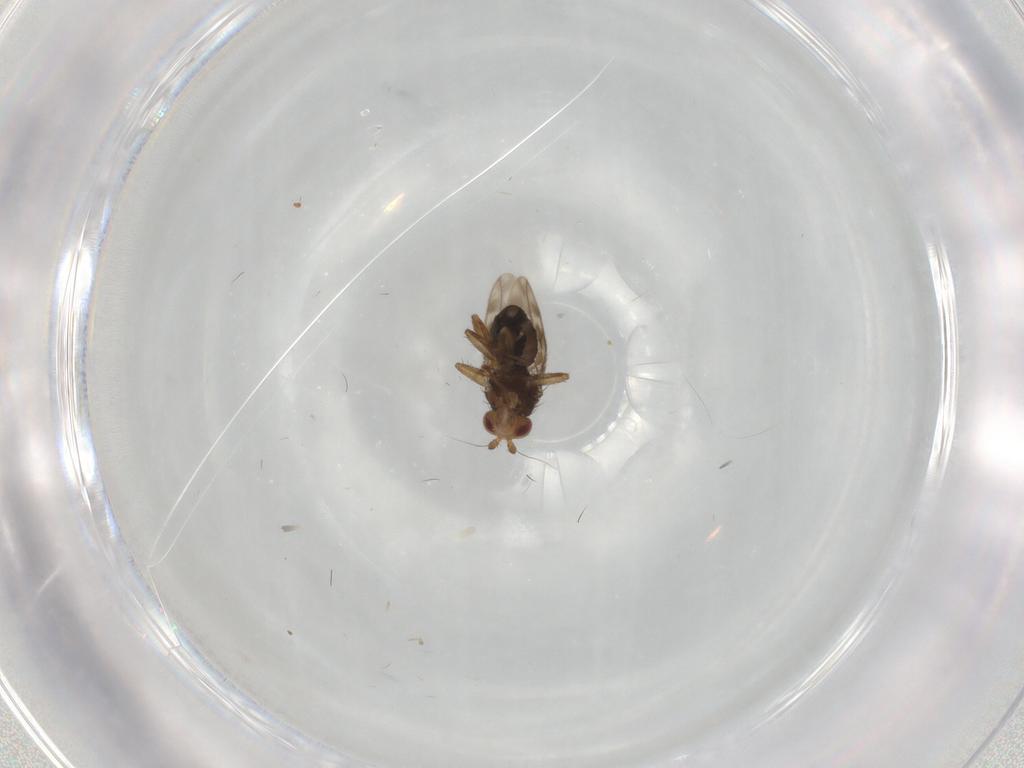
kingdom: Animalia
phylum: Arthropoda
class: Insecta
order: Diptera
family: Sphaeroceridae
